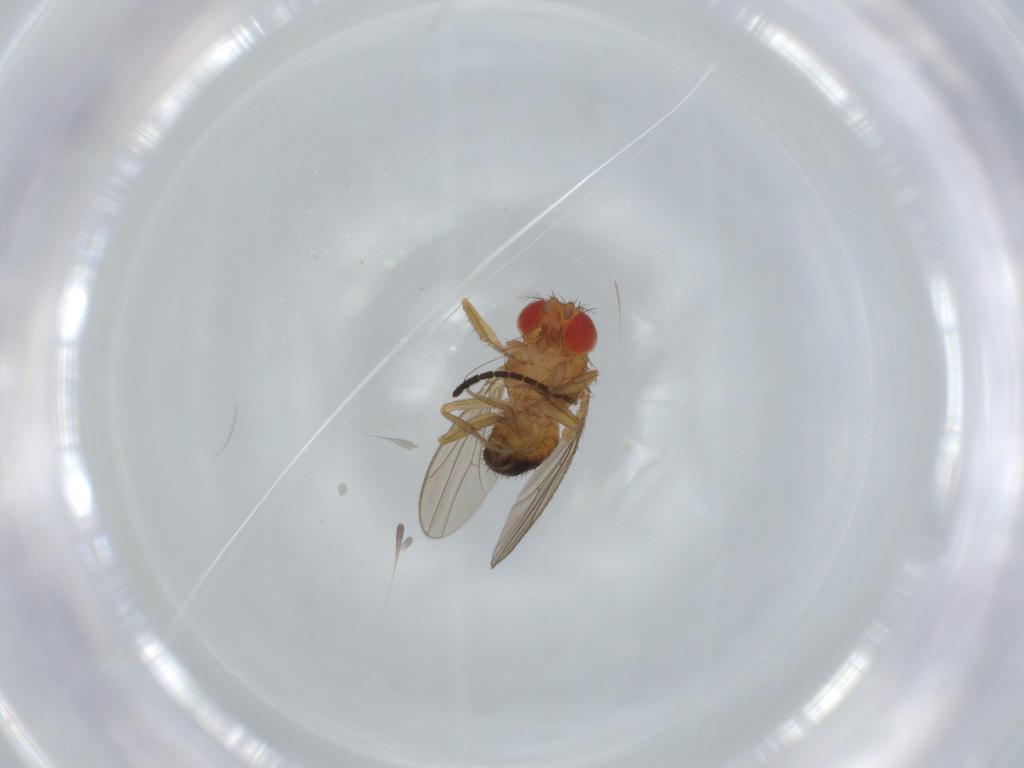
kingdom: Animalia
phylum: Arthropoda
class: Insecta
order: Diptera
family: Drosophilidae
